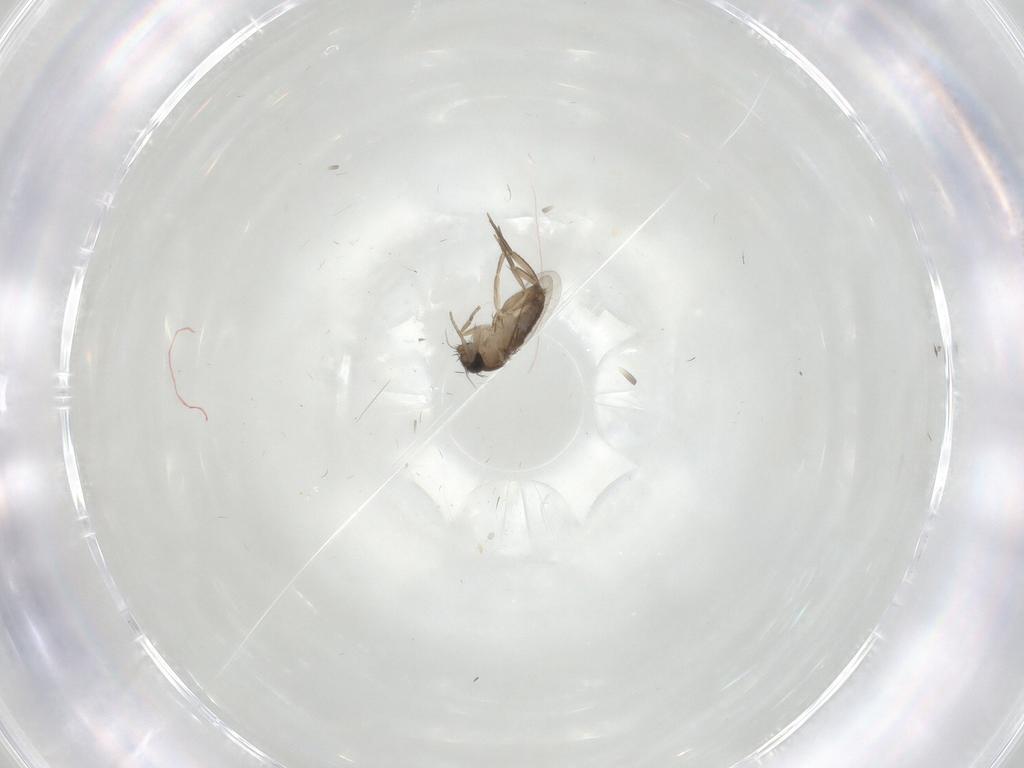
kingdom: Animalia
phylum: Arthropoda
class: Insecta
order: Diptera
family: Phoridae
